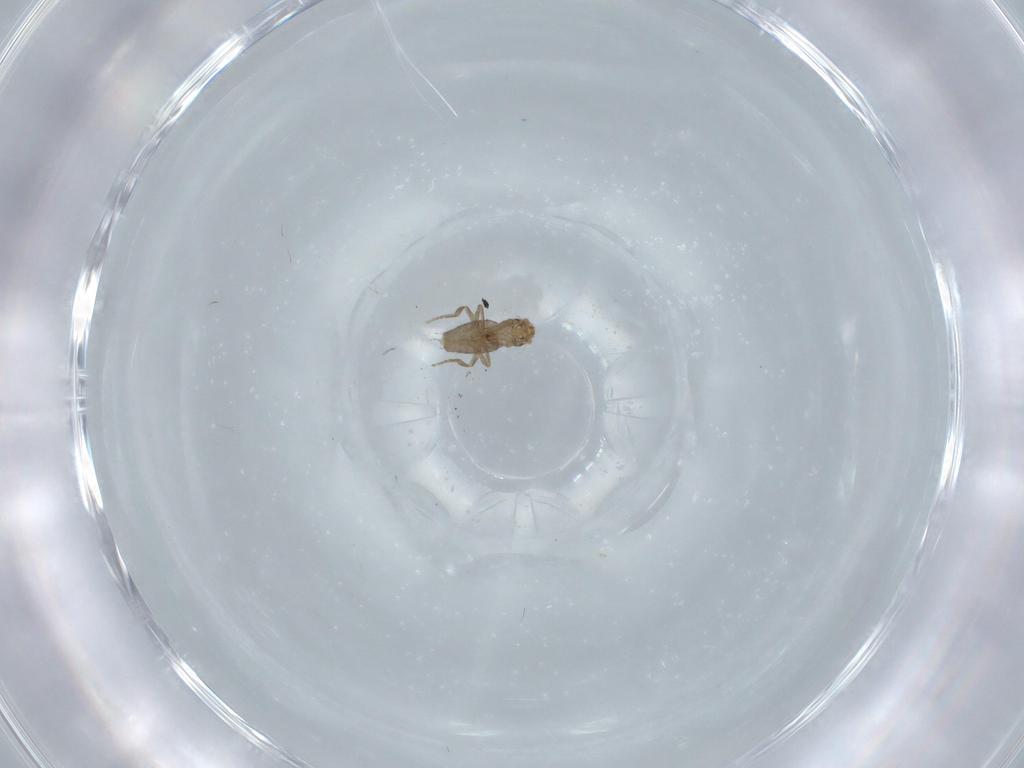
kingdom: Animalia
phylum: Arthropoda
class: Insecta
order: Diptera
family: Phoridae
